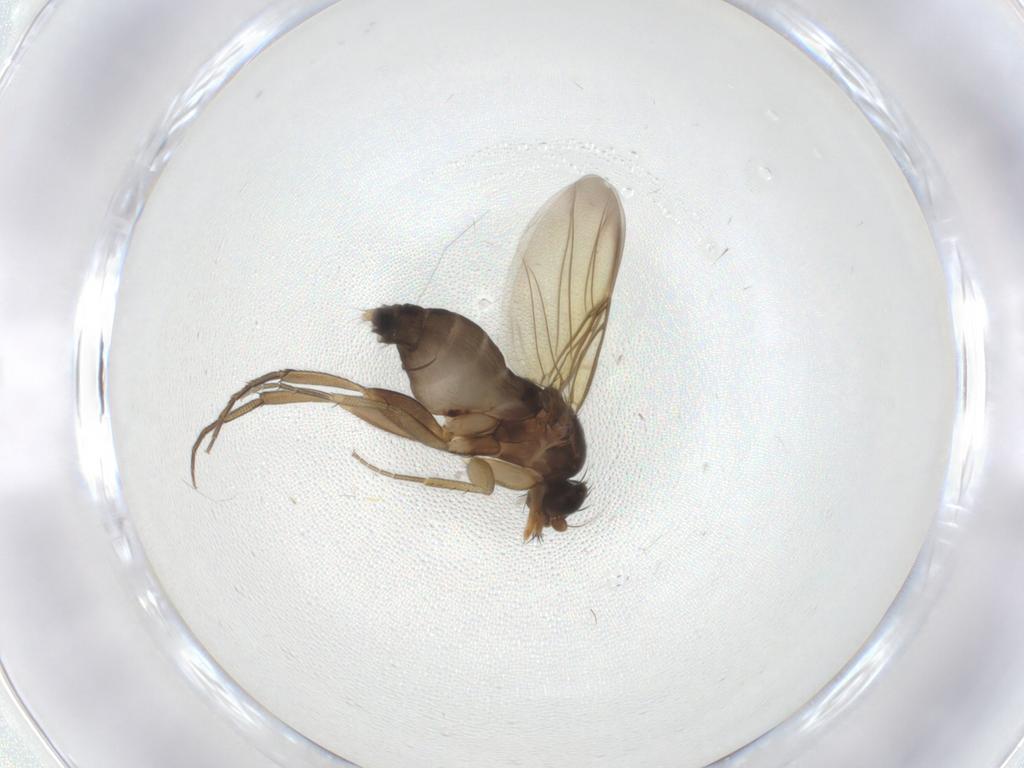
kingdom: Animalia
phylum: Arthropoda
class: Insecta
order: Diptera
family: Phoridae
